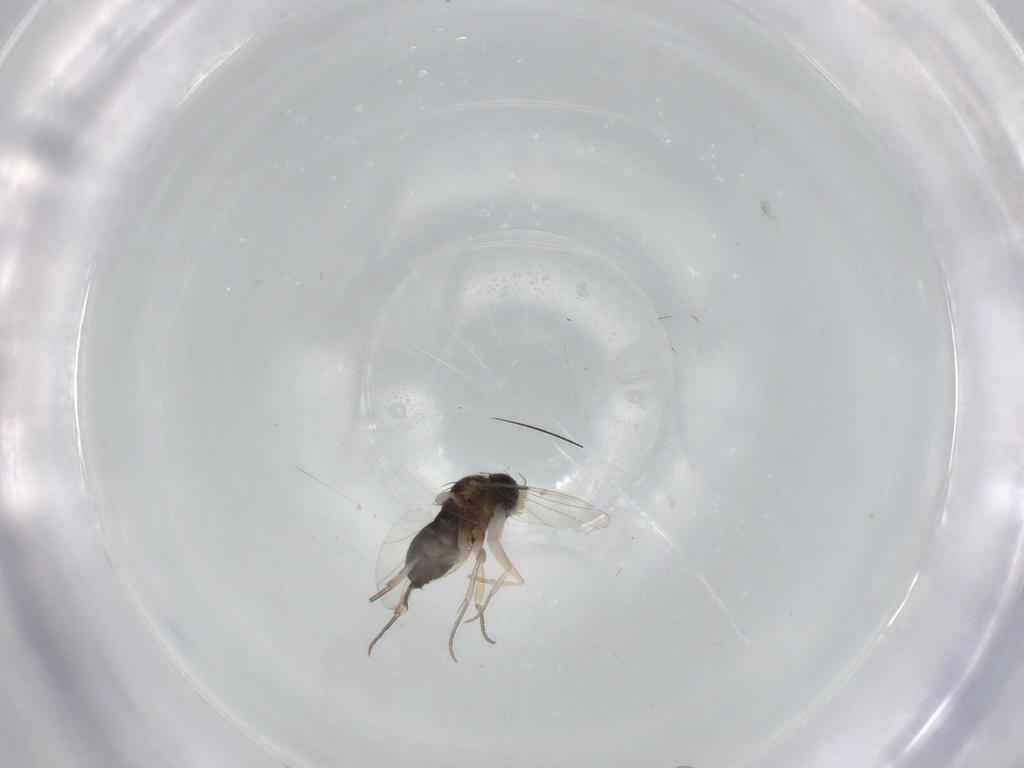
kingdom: Animalia
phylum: Arthropoda
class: Insecta
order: Diptera
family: Phoridae
